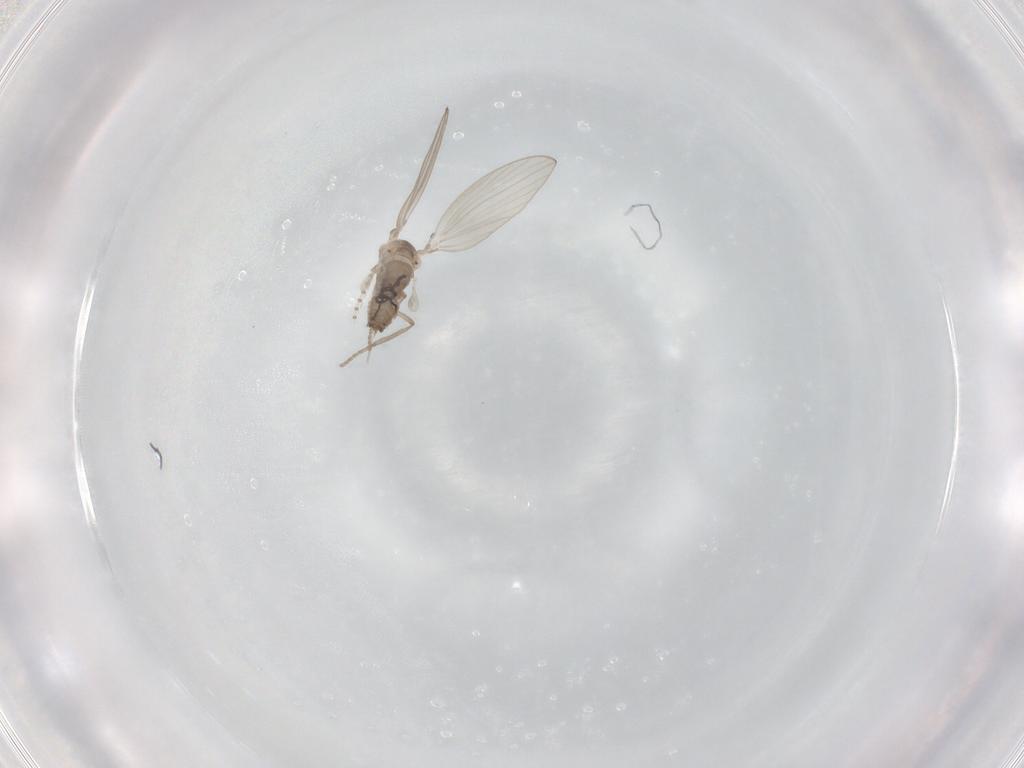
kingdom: Animalia
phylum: Arthropoda
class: Insecta
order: Diptera
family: Psychodidae
